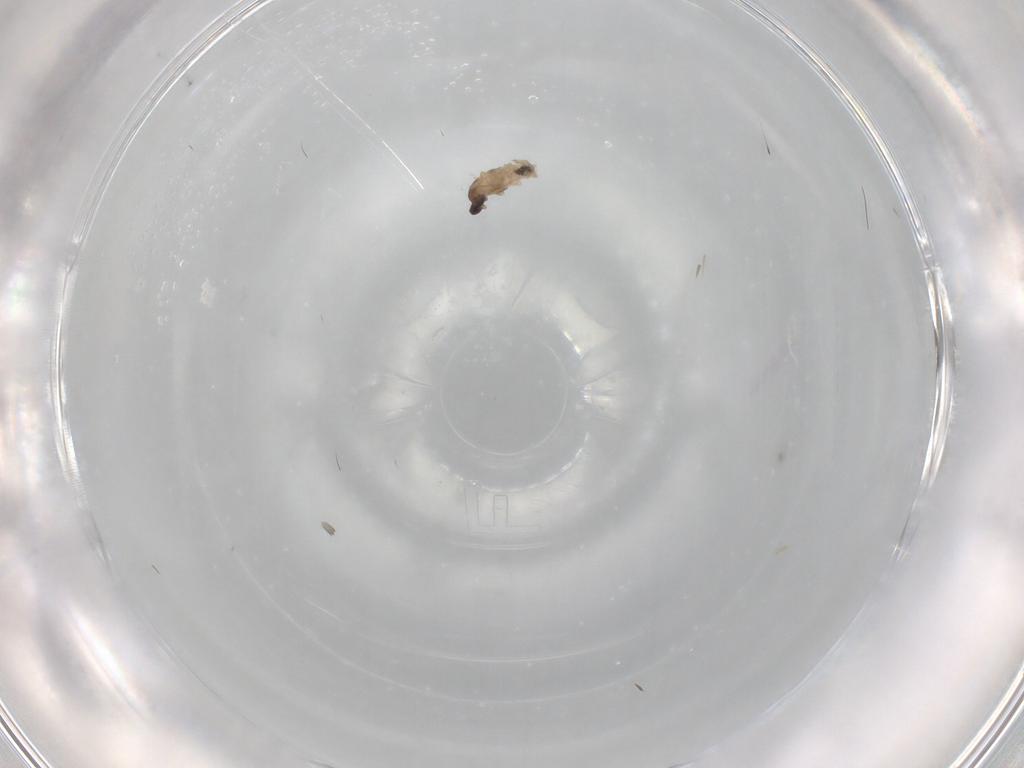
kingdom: Animalia
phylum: Arthropoda
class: Insecta
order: Diptera
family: Cecidomyiidae
